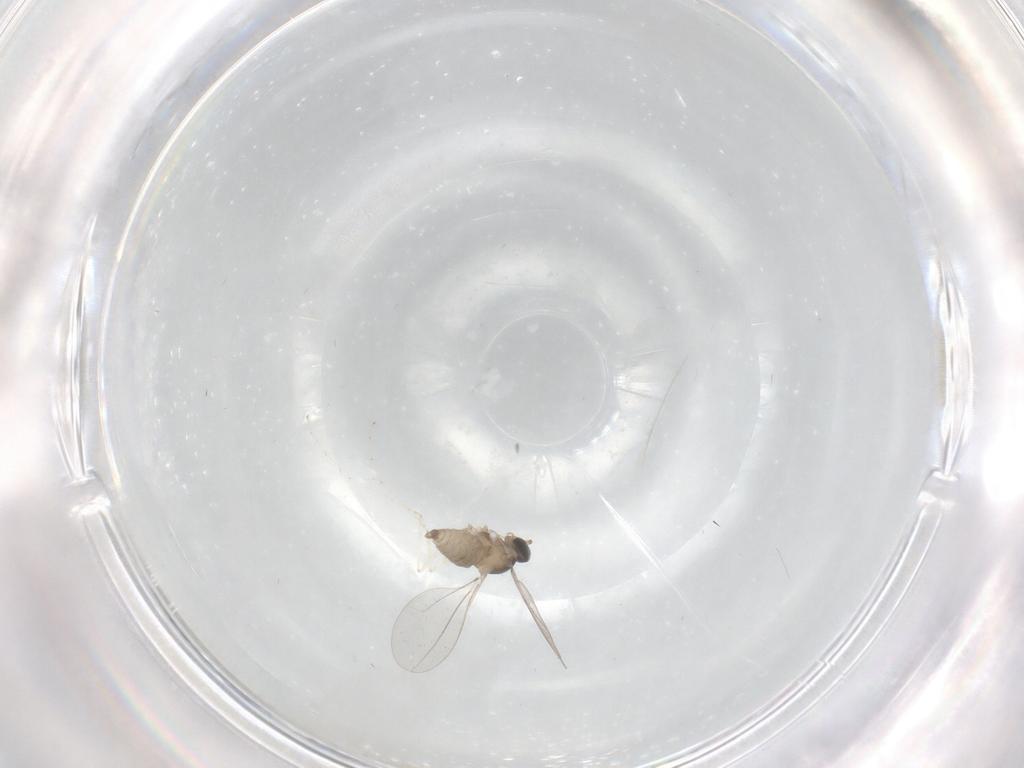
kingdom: Animalia
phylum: Arthropoda
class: Insecta
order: Diptera
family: Cecidomyiidae
